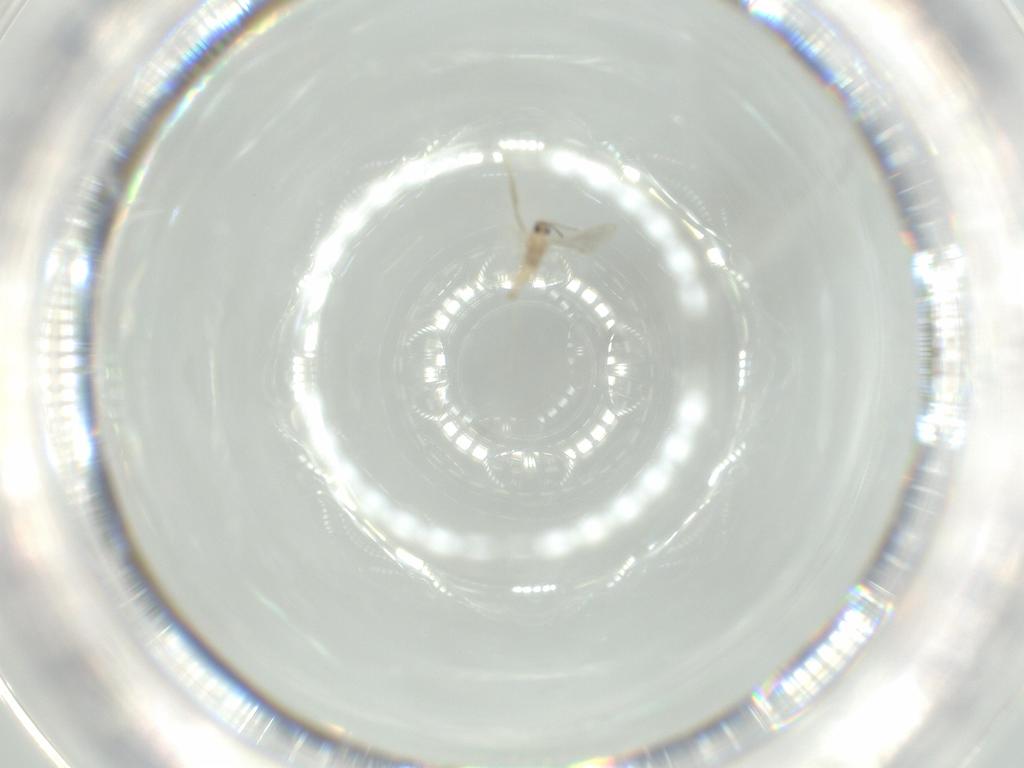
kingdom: Animalia
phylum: Arthropoda
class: Insecta
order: Diptera
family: Cecidomyiidae
